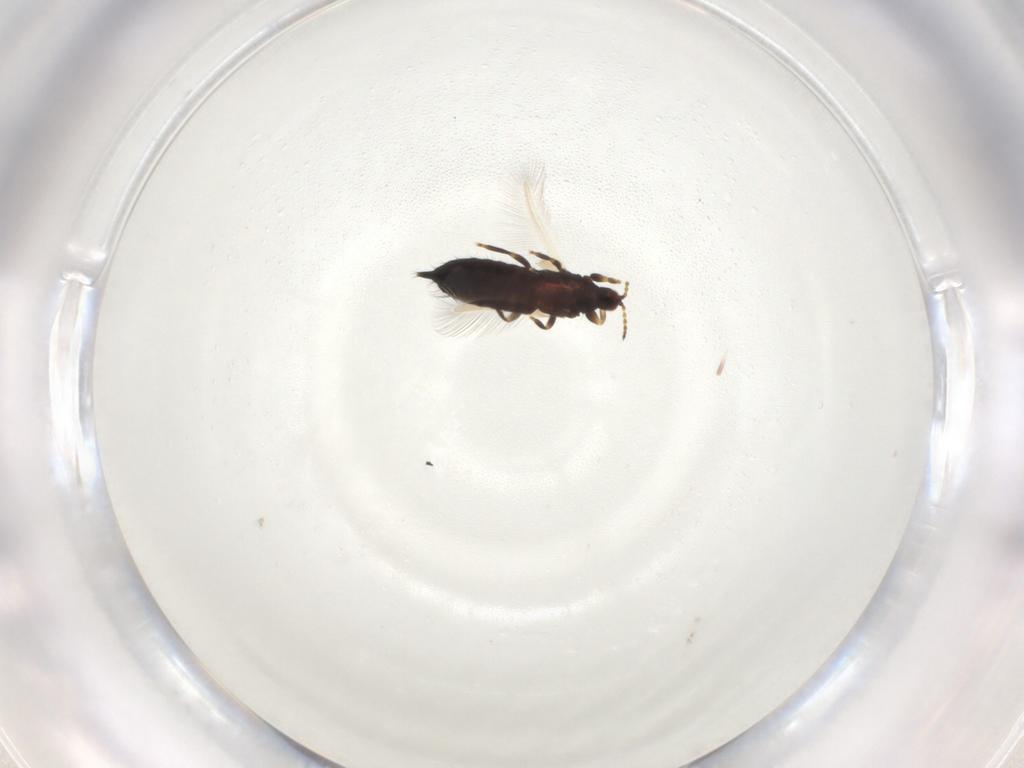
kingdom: Animalia
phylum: Arthropoda
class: Insecta
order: Thysanoptera
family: Phlaeothripidae
